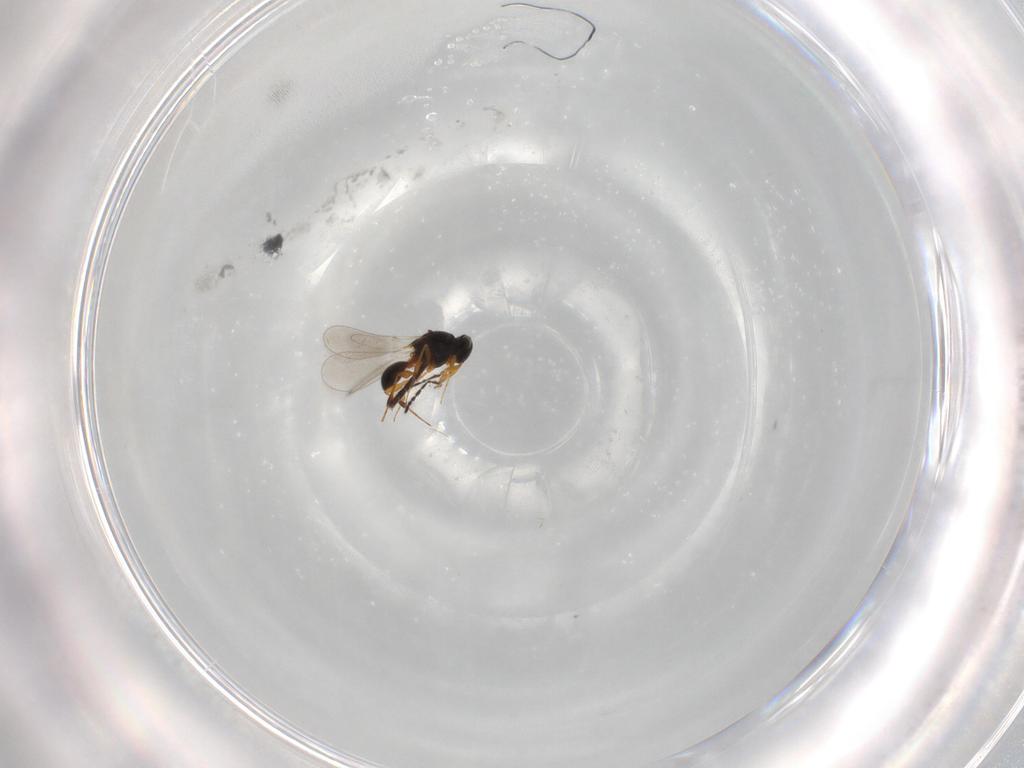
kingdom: Animalia
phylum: Arthropoda
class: Insecta
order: Hymenoptera
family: Platygastridae
